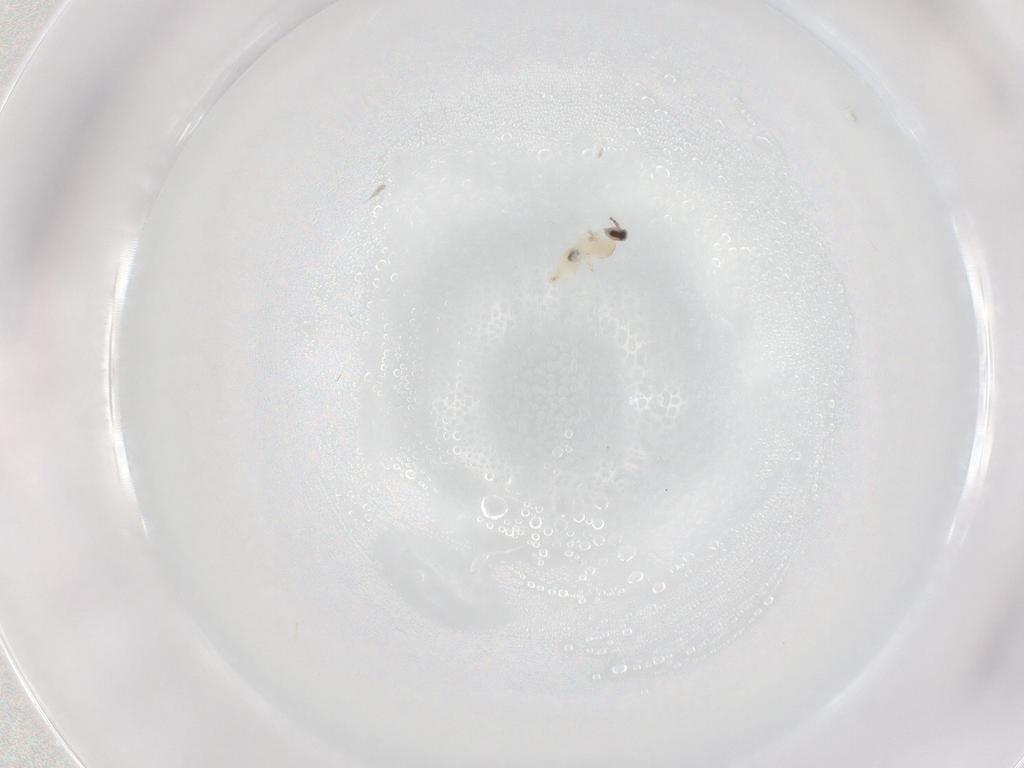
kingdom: Animalia
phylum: Arthropoda
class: Insecta
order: Diptera
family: Cecidomyiidae
